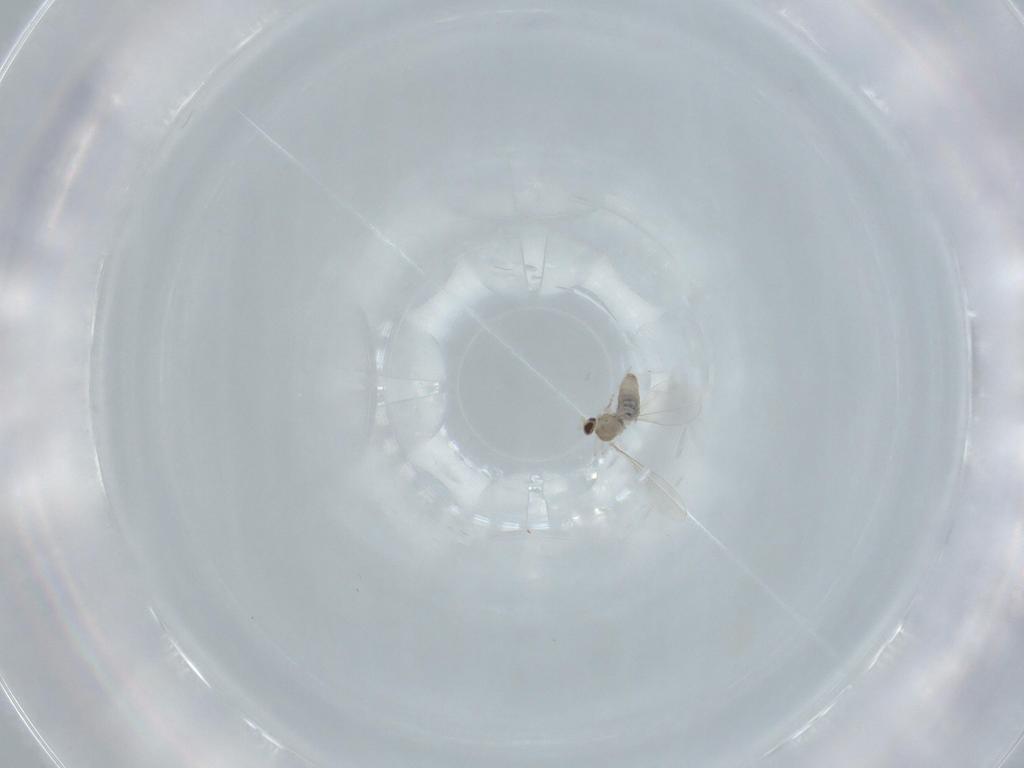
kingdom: Animalia
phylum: Arthropoda
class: Insecta
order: Diptera
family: Cecidomyiidae
